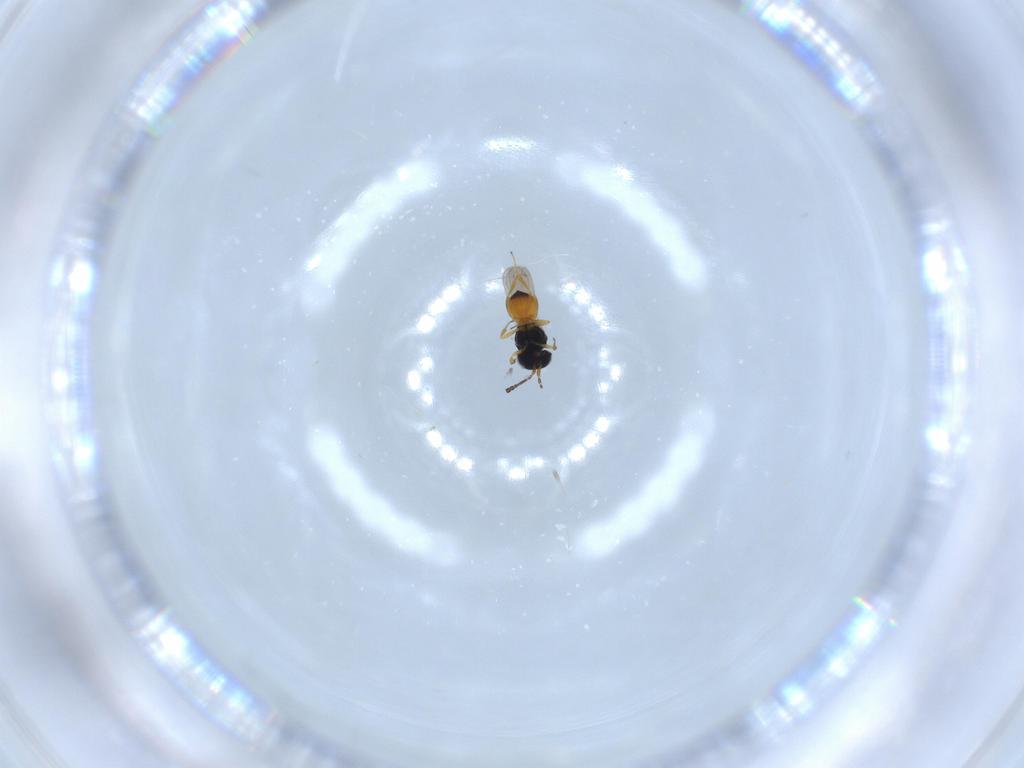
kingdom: Animalia
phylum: Arthropoda
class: Insecta
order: Hymenoptera
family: Scelionidae
